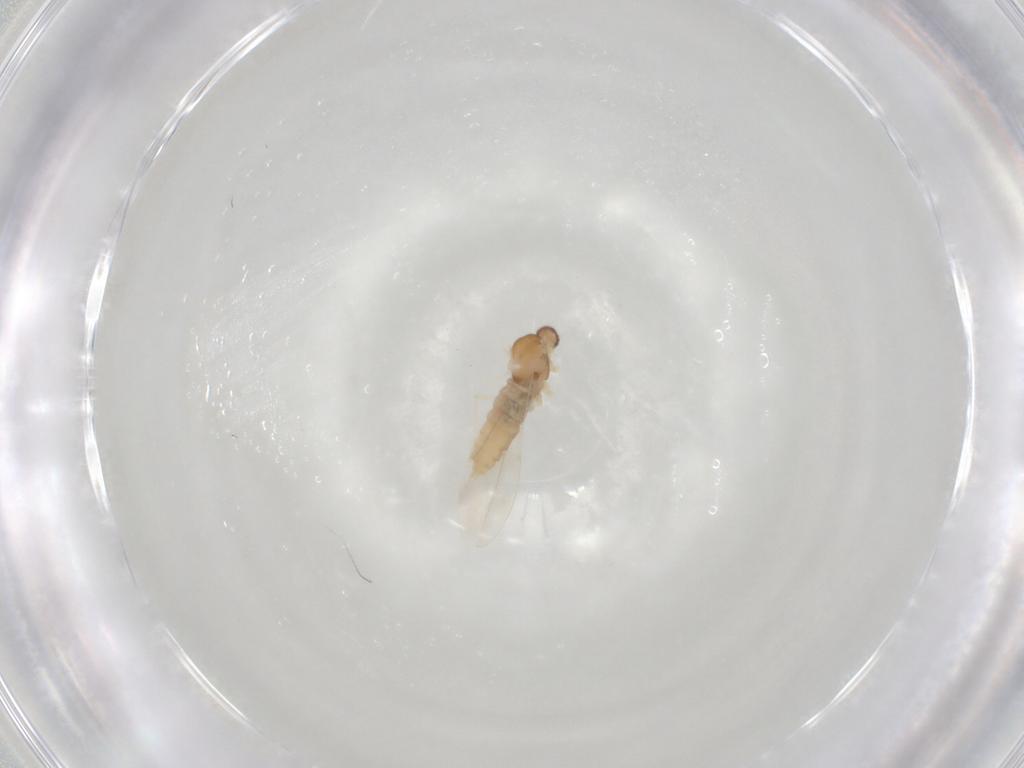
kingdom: Animalia
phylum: Arthropoda
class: Insecta
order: Diptera
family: Cecidomyiidae
